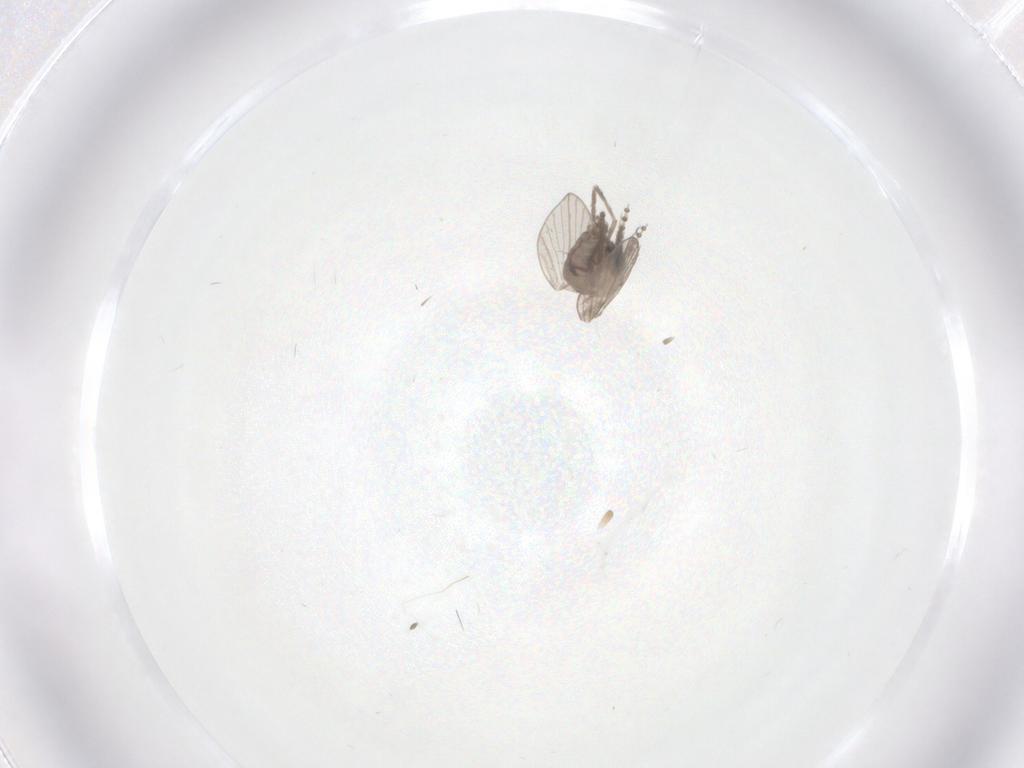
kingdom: Animalia
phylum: Arthropoda
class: Insecta
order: Diptera
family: Psychodidae
